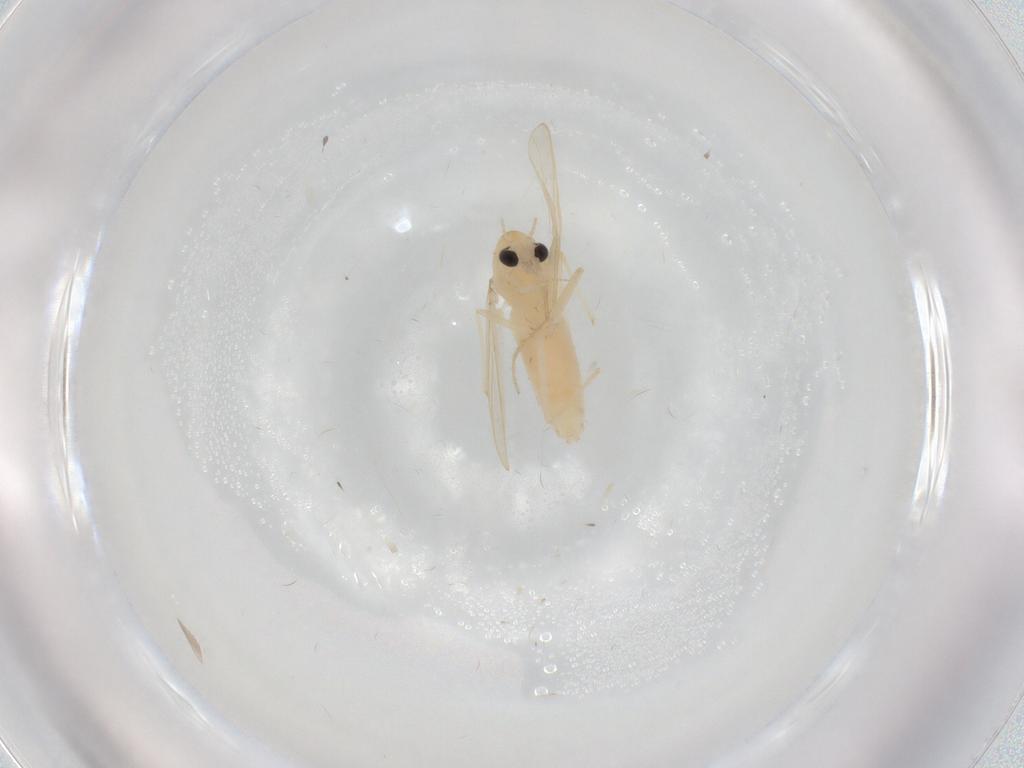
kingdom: Animalia
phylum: Arthropoda
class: Insecta
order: Diptera
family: Chironomidae
